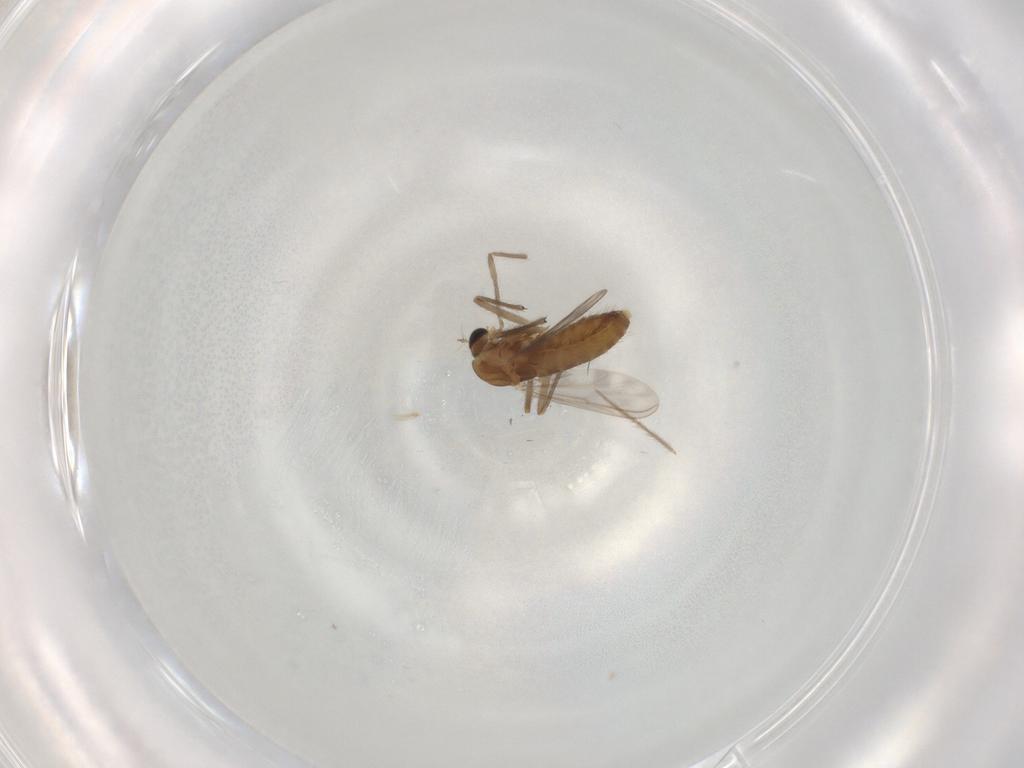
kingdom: Animalia
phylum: Arthropoda
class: Insecta
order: Diptera
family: Chironomidae
